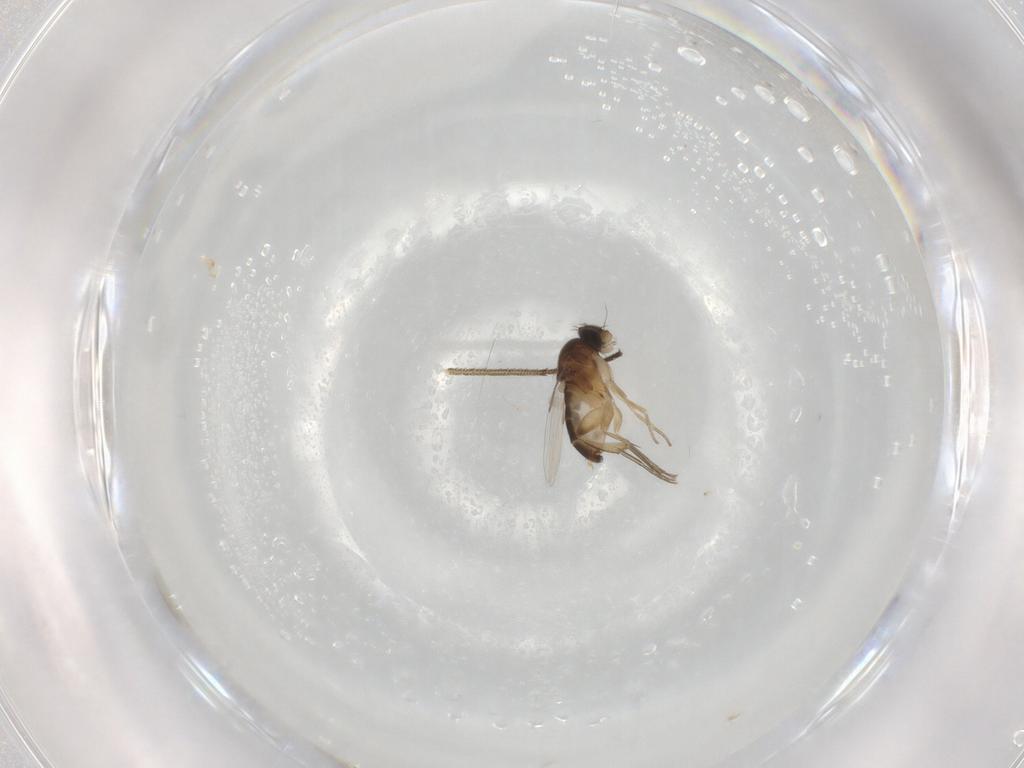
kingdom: Animalia
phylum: Arthropoda
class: Insecta
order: Diptera
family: Phoridae
